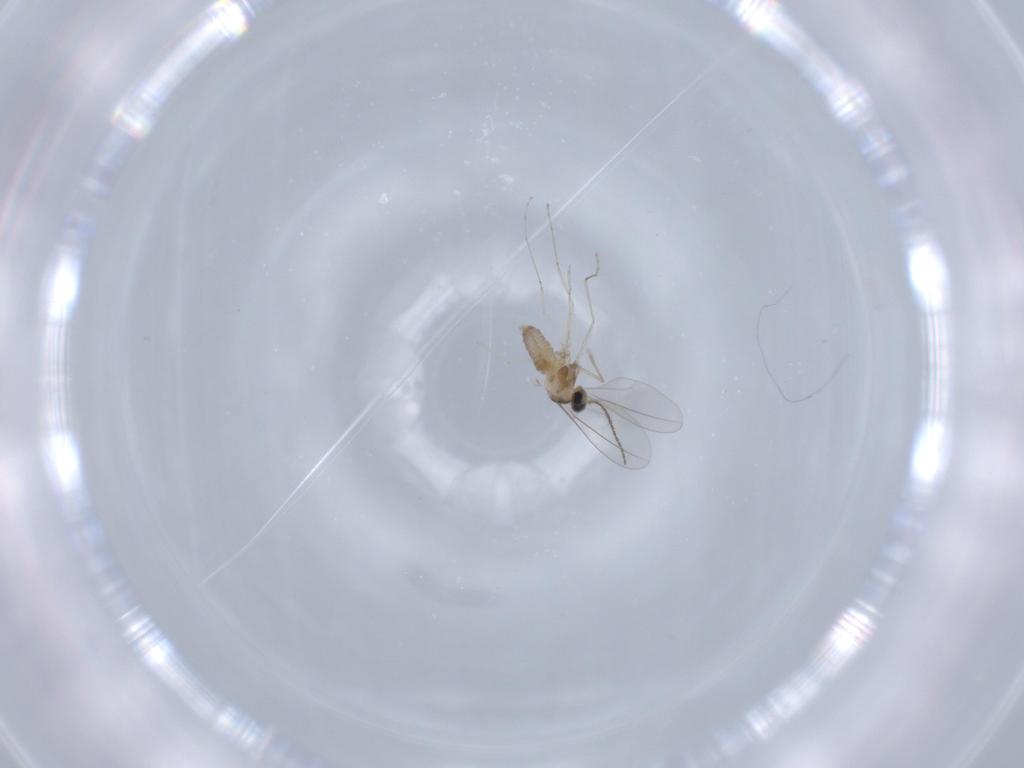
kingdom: Animalia
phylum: Arthropoda
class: Insecta
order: Diptera
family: Cecidomyiidae
